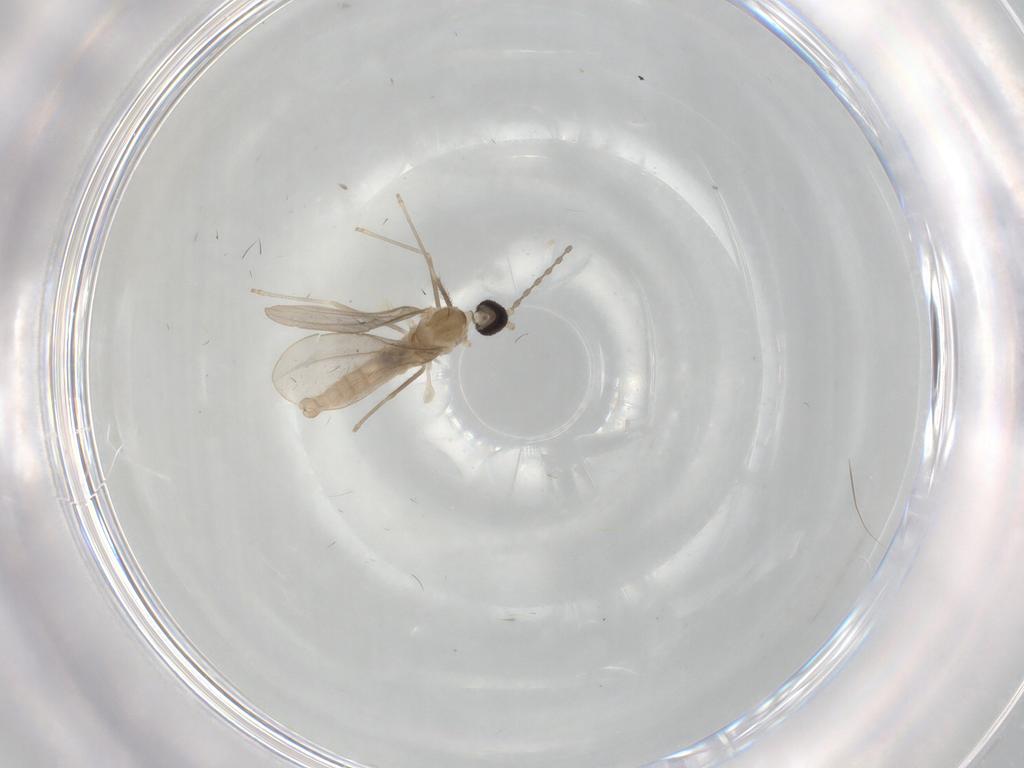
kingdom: Animalia
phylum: Arthropoda
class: Insecta
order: Diptera
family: Cecidomyiidae
